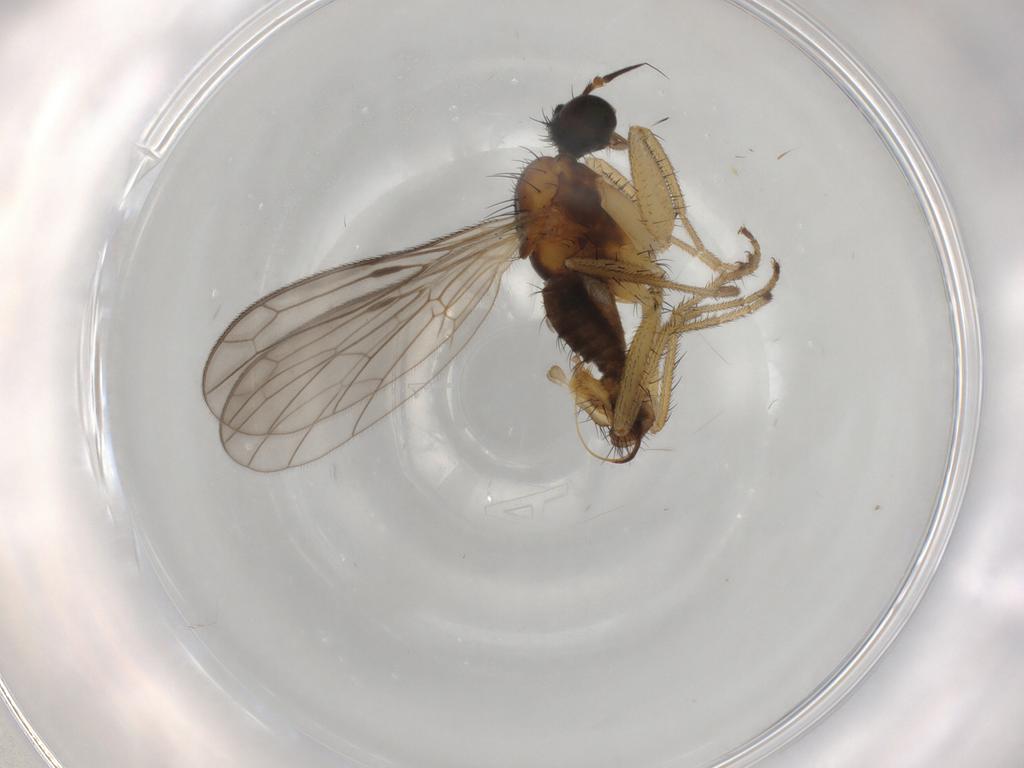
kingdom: Animalia
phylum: Arthropoda
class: Insecta
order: Diptera
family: Empididae
